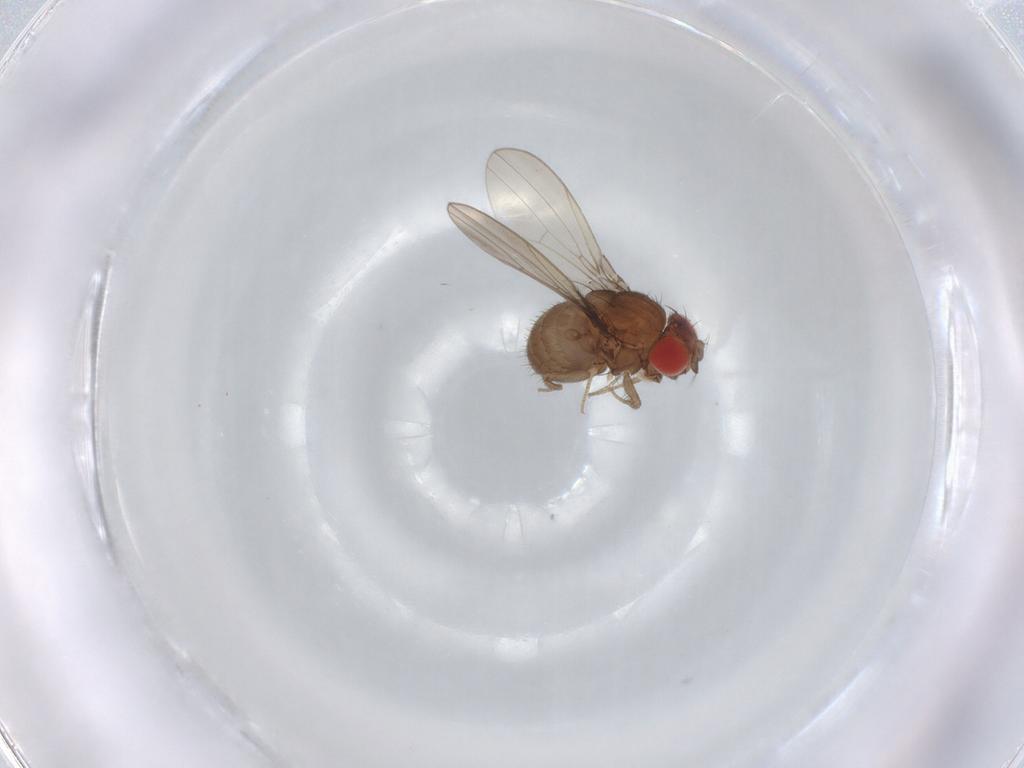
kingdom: Animalia
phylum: Arthropoda
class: Insecta
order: Diptera
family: Drosophilidae
